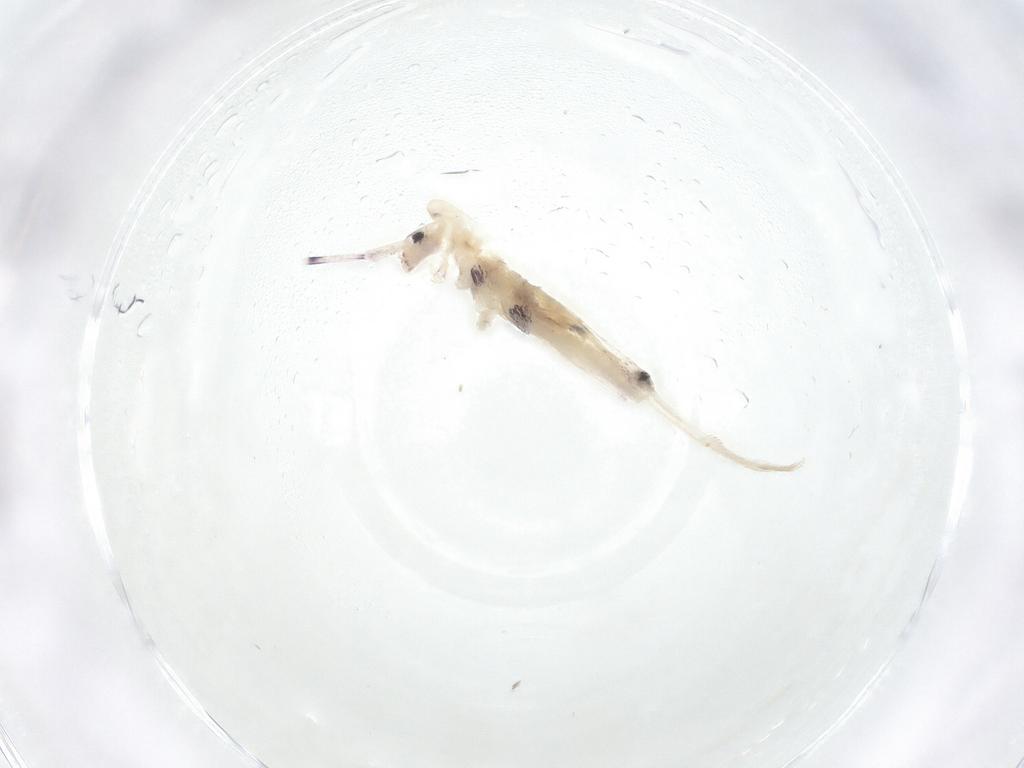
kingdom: Animalia
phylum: Arthropoda
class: Collembola
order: Entomobryomorpha
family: Entomobryidae
